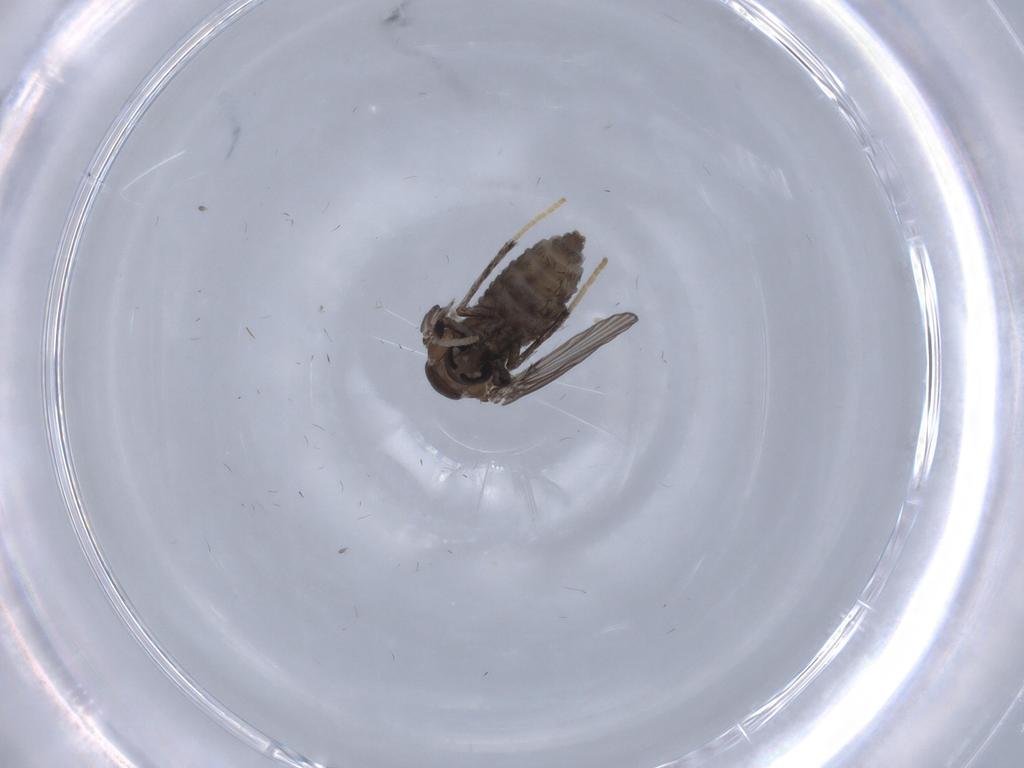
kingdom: Animalia
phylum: Arthropoda
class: Insecta
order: Diptera
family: Psychodidae
